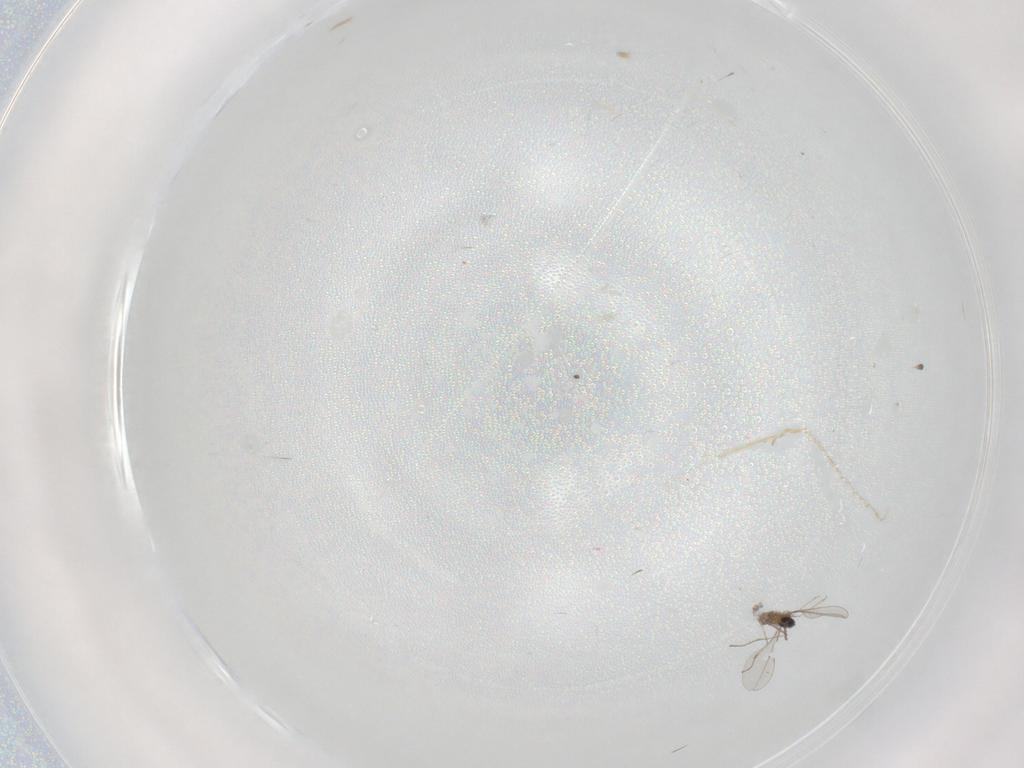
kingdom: Animalia
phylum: Arthropoda
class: Insecta
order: Diptera
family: Cecidomyiidae
